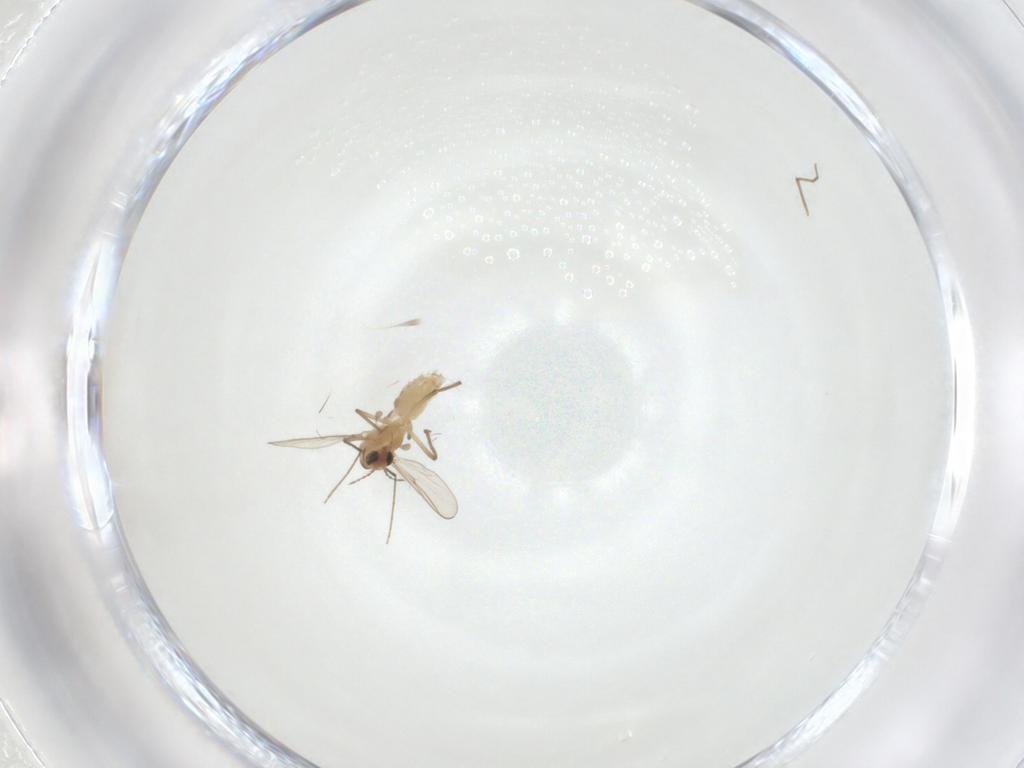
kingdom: Animalia
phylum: Arthropoda
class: Insecta
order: Diptera
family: Chironomidae
